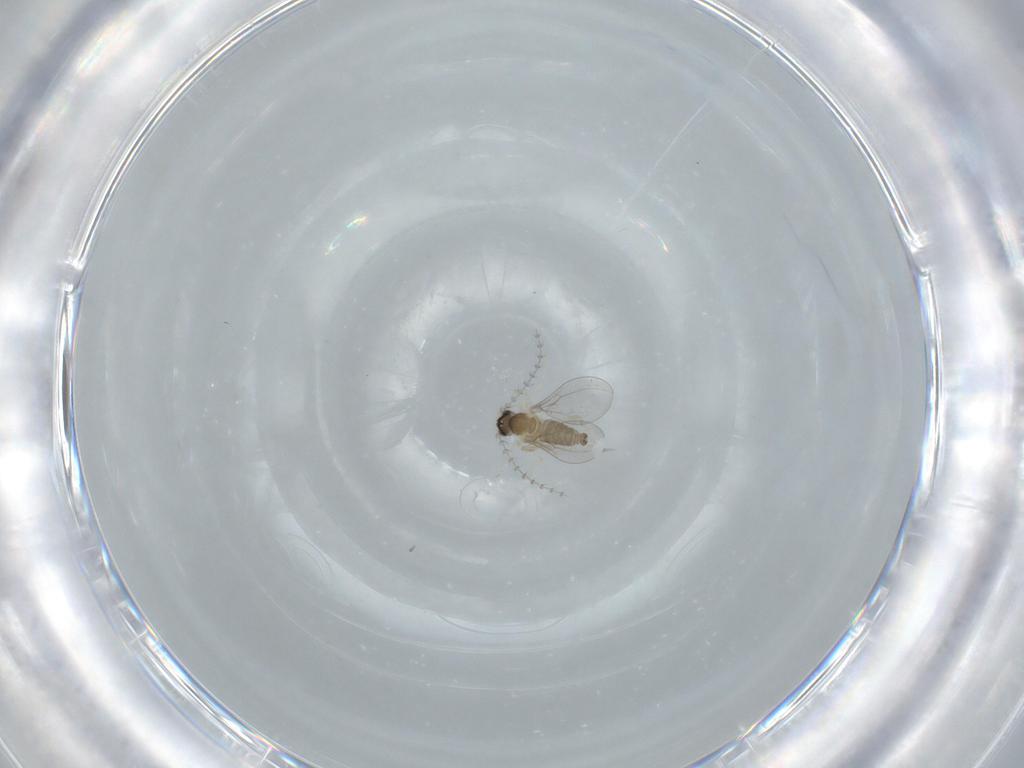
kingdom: Animalia
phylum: Arthropoda
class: Insecta
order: Diptera
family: Cecidomyiidae
